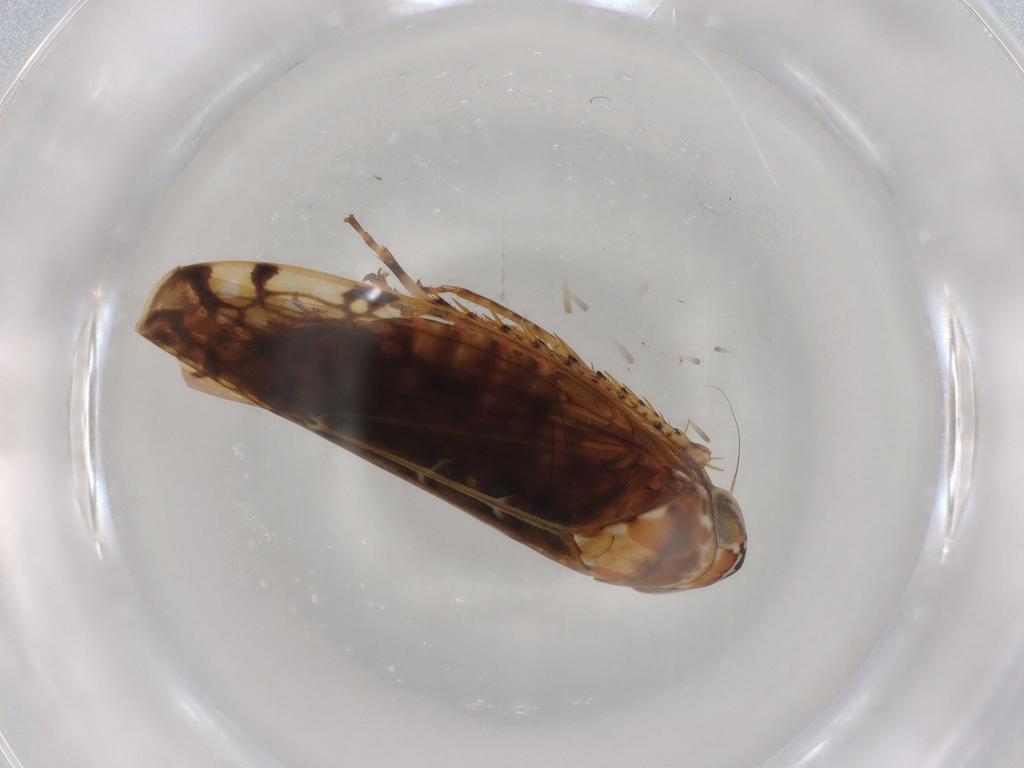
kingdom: Animalia
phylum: Arthropoda
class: Insecta
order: Hemiptera
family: Cicadellidae
